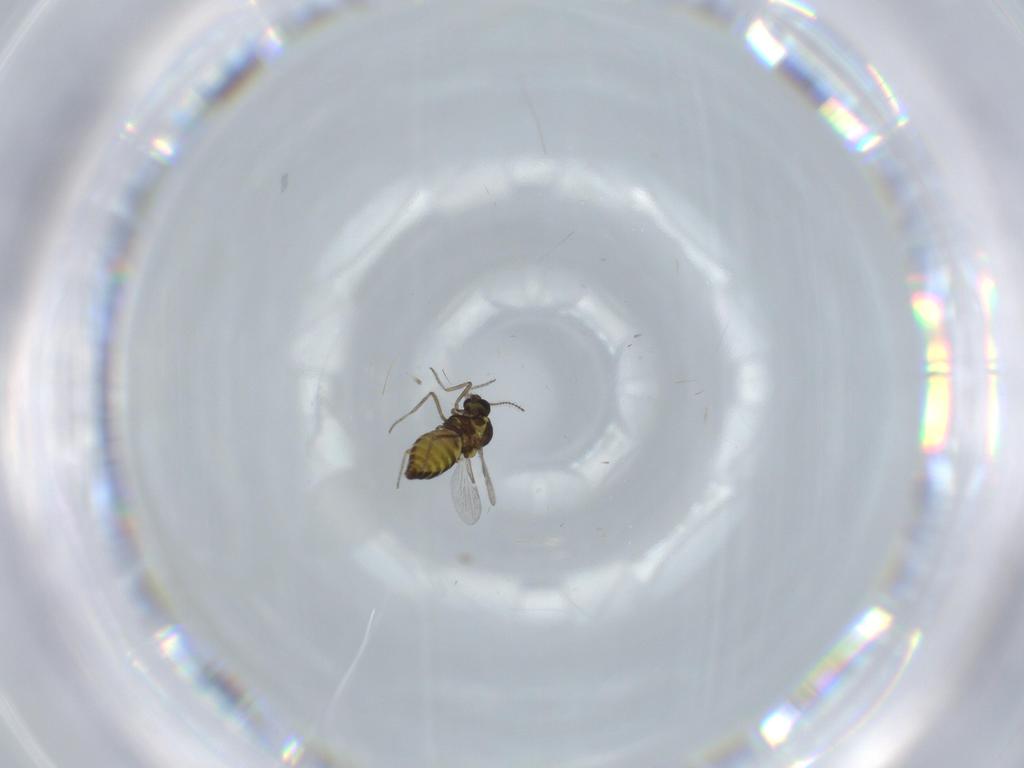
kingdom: Animalia
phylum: Arthropoda
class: Insecta
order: Diptera
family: Ceratopogonidae
